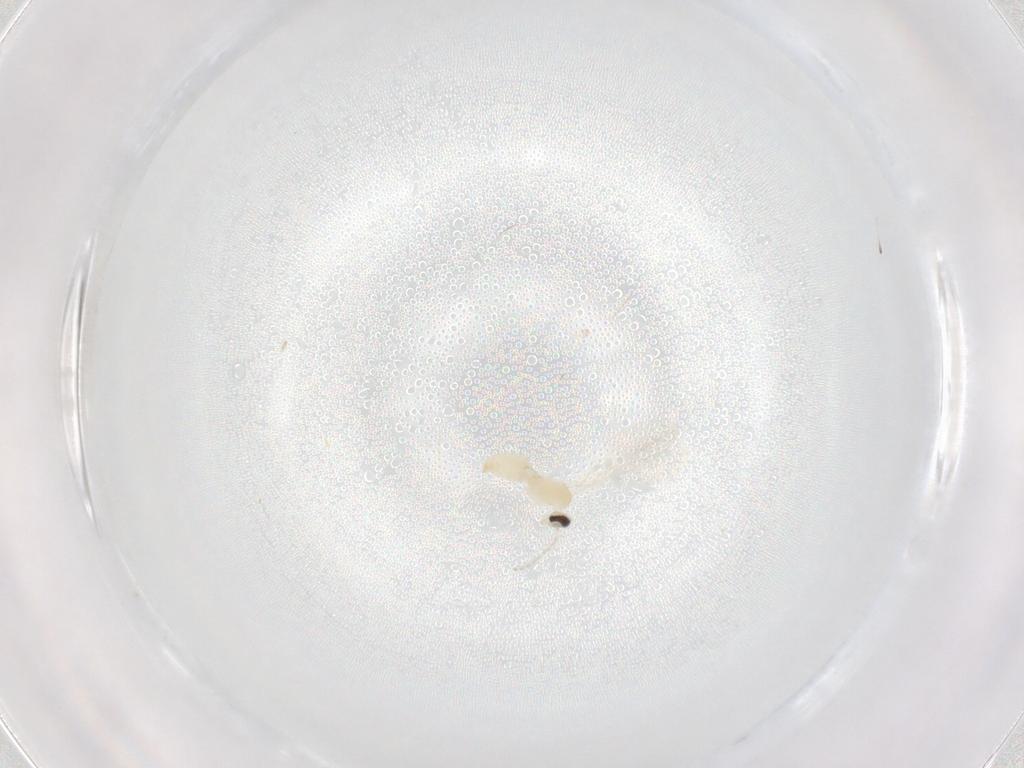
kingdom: Animalia
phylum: Arthropoda
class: Insecta
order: Diptera
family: Cecidomyiidae
